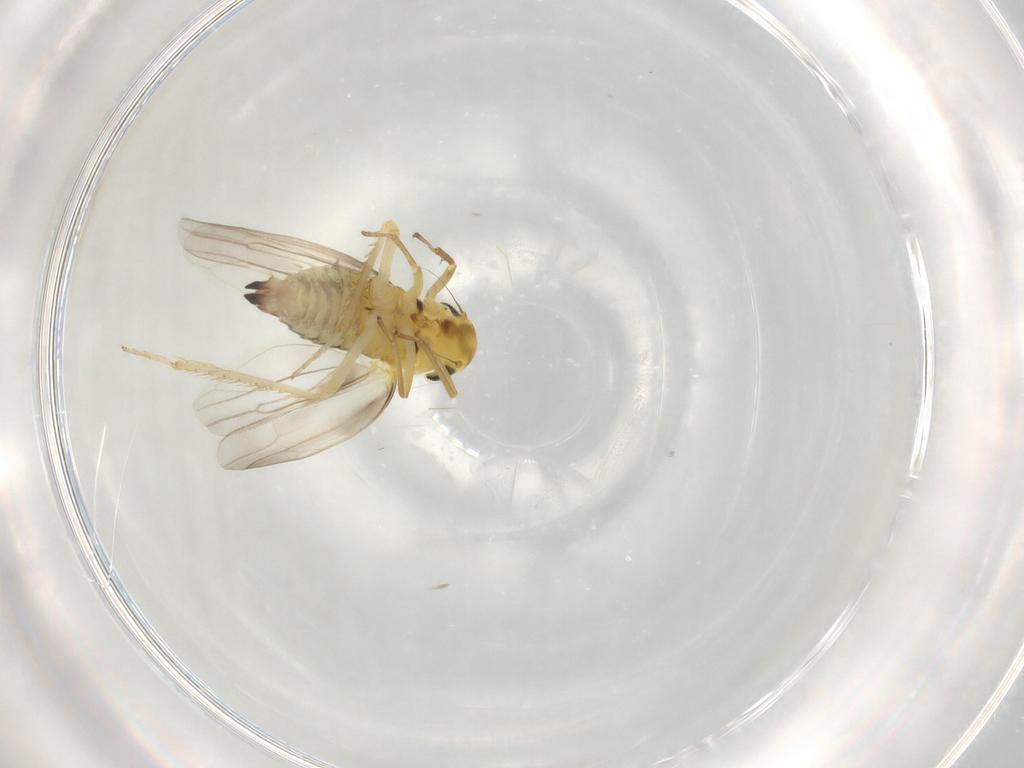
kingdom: Animalia
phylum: Arthropoda
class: Insecta
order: Hemiptera
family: Cicadellidae
